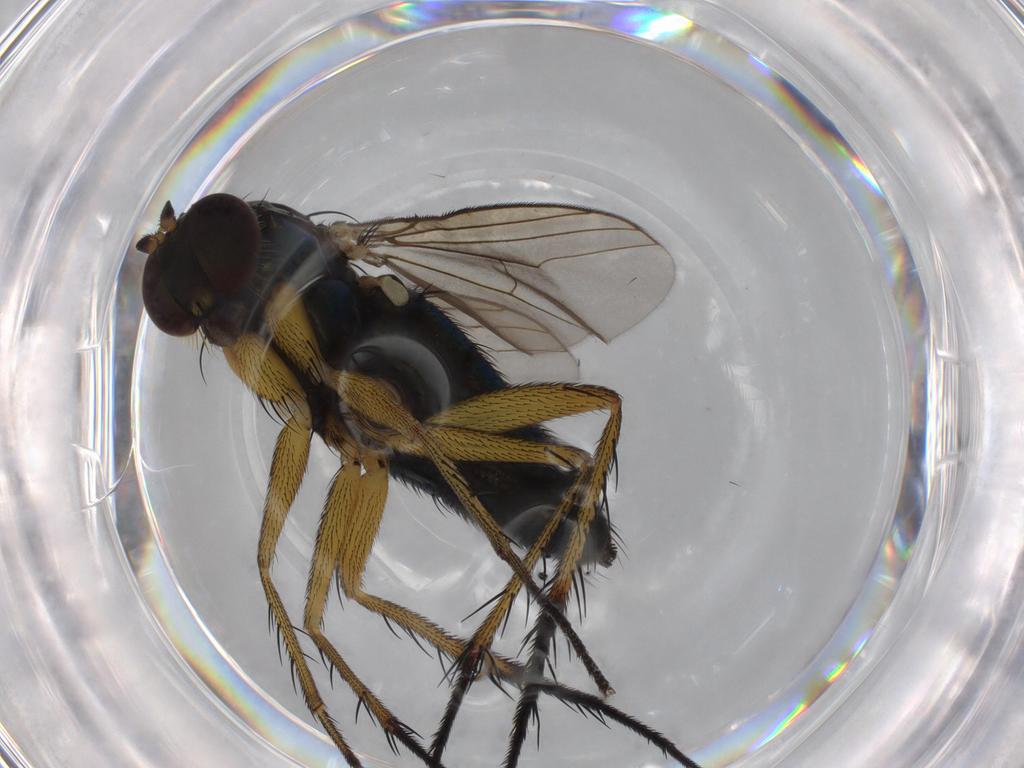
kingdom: Animalia
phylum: Arthropoda
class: Insecta
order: Diptera
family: Dolichopodidae
